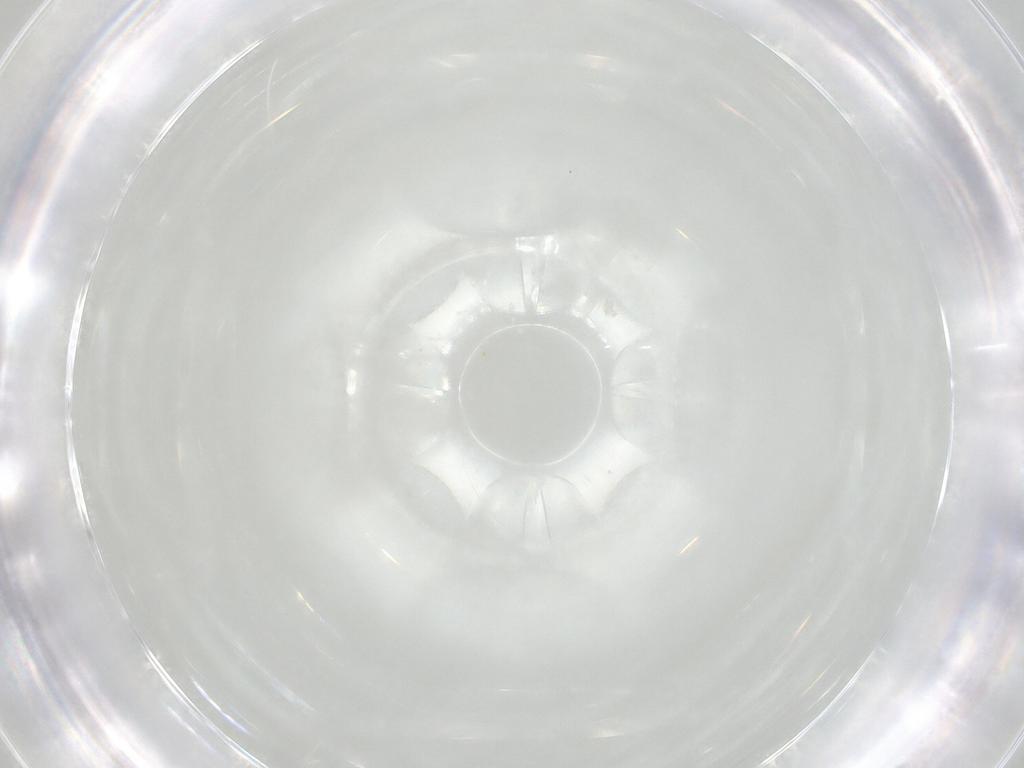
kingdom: Animalia
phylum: Arthropoda
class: Insecta
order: Diptera
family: Cecidomyiidae
